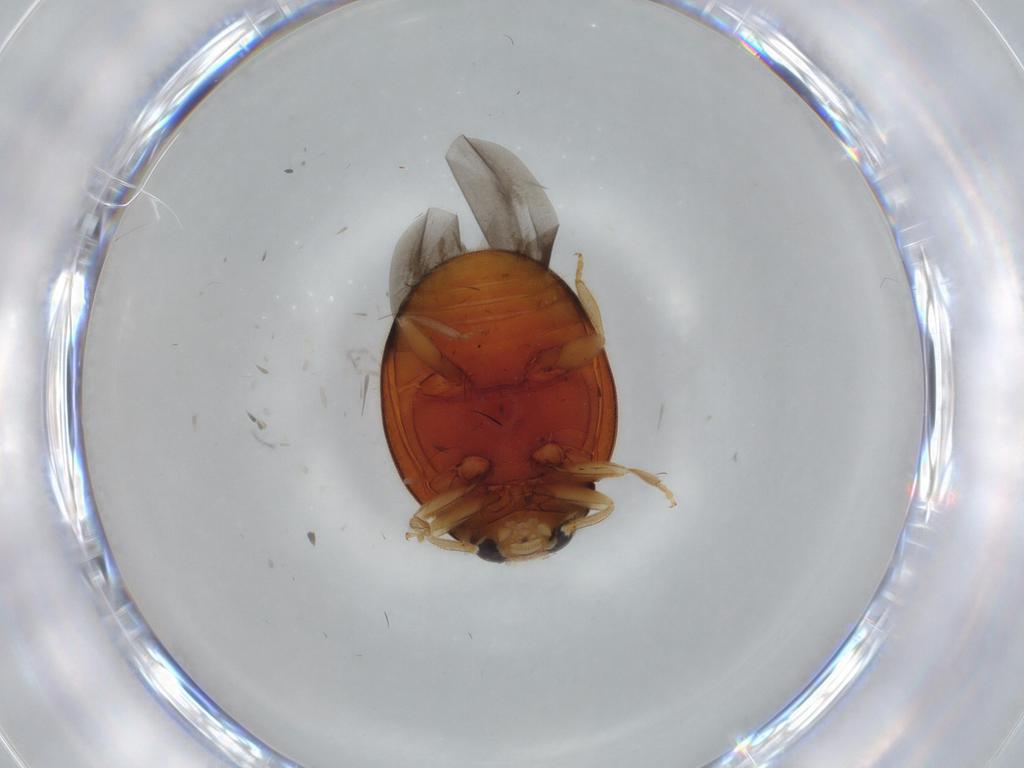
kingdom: Animalia
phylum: Arthropoda
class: Insecta
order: Coleoptera
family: Coccinellidae
